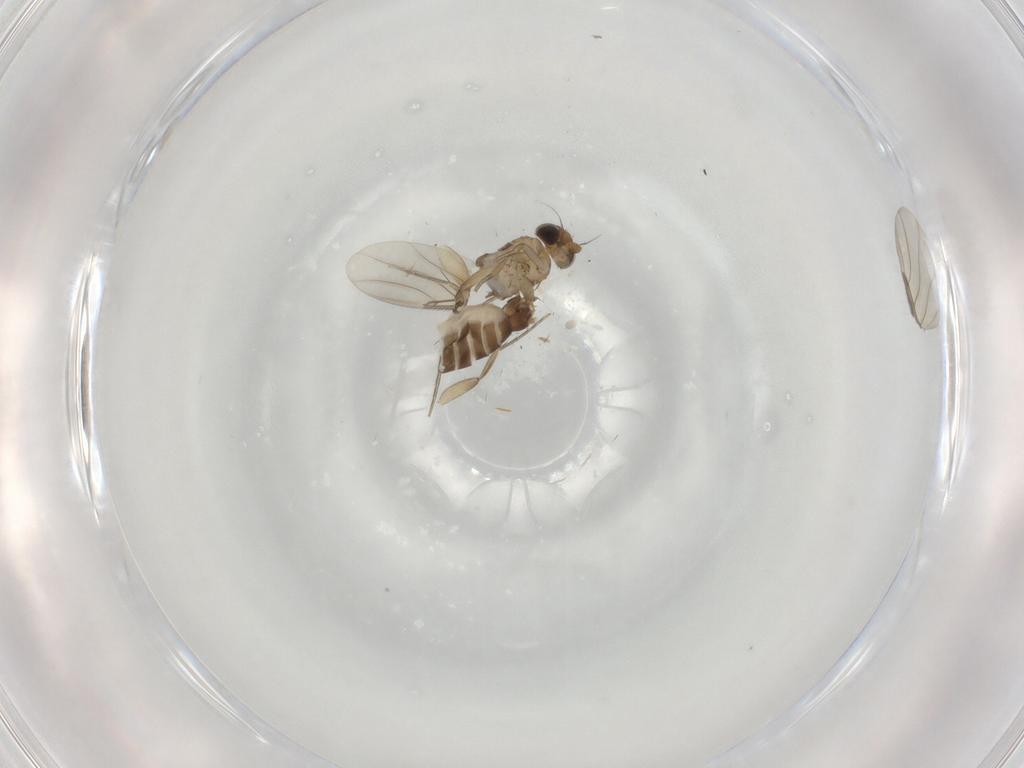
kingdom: Animalia
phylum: Arthropoda
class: Insecta
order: Diptera
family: Phoridae
